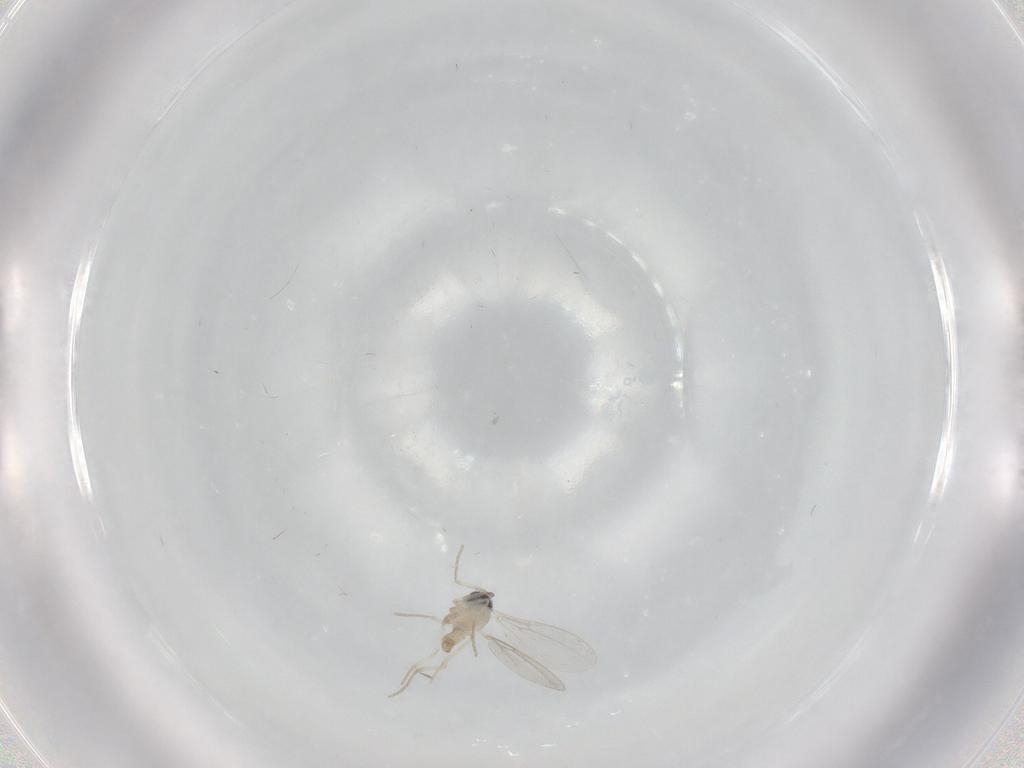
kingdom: Animalia
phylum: Arthropoda
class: Insecta
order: Diptera
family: Cecidomyiidae
